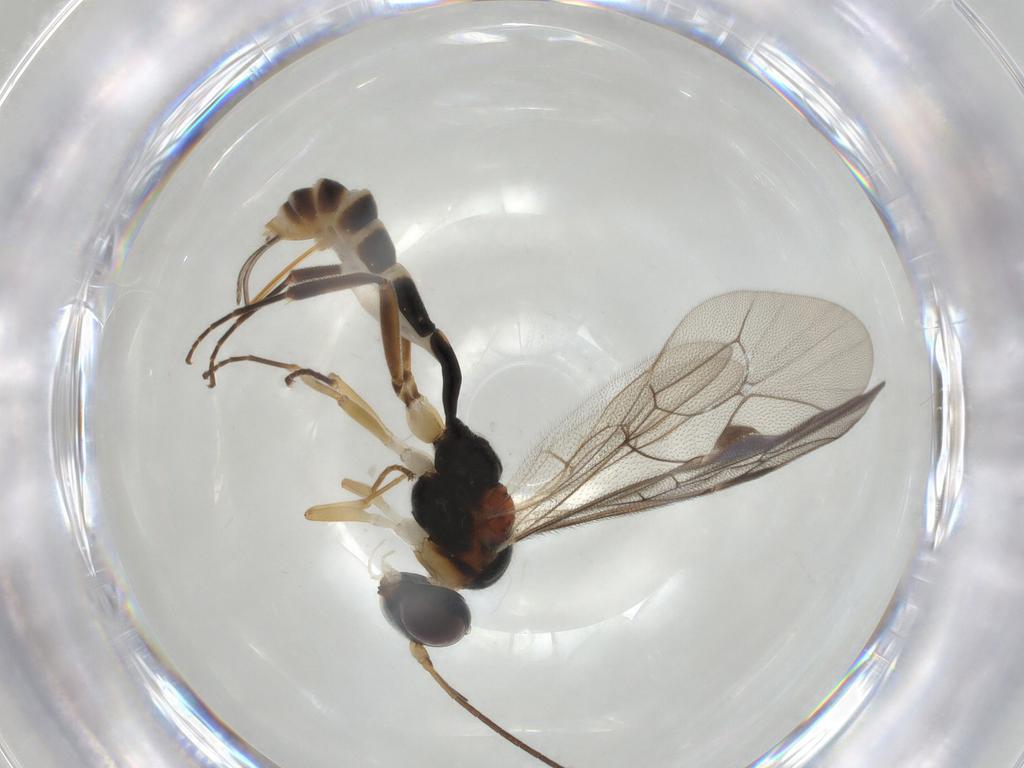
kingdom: Animalia
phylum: Arthropoda
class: Insecta
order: Hymenoptera
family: Ichneumonidae
